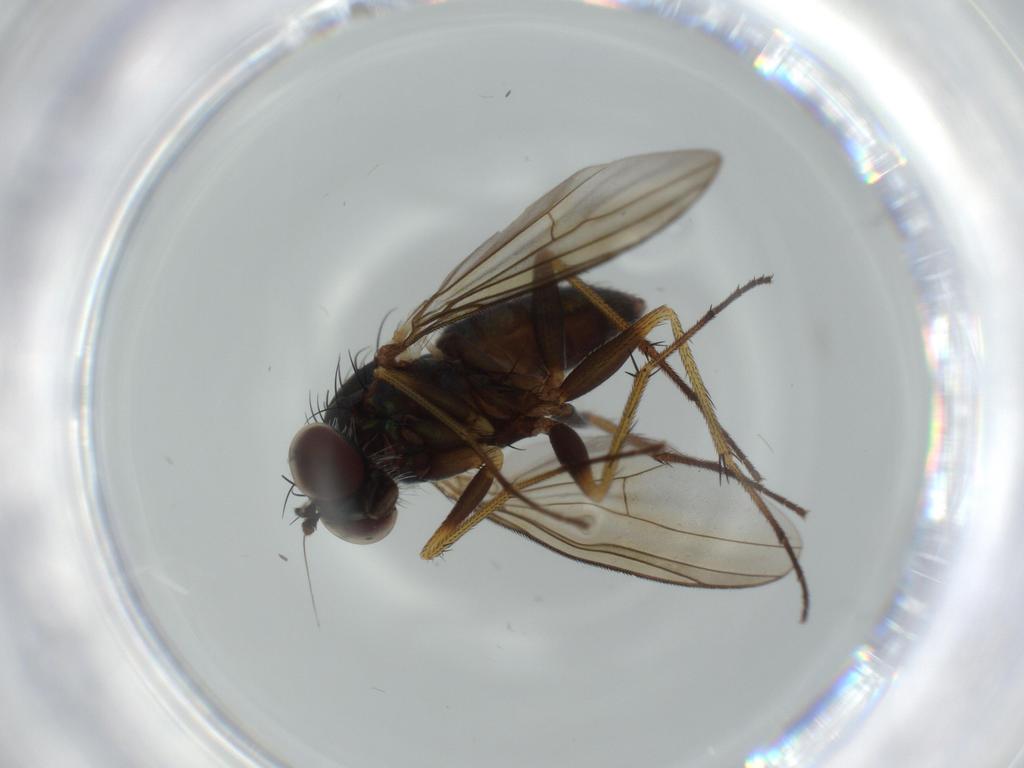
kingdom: Animalia
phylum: Arthropoda
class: Insecta
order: Diptera
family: Dolichopodidae
